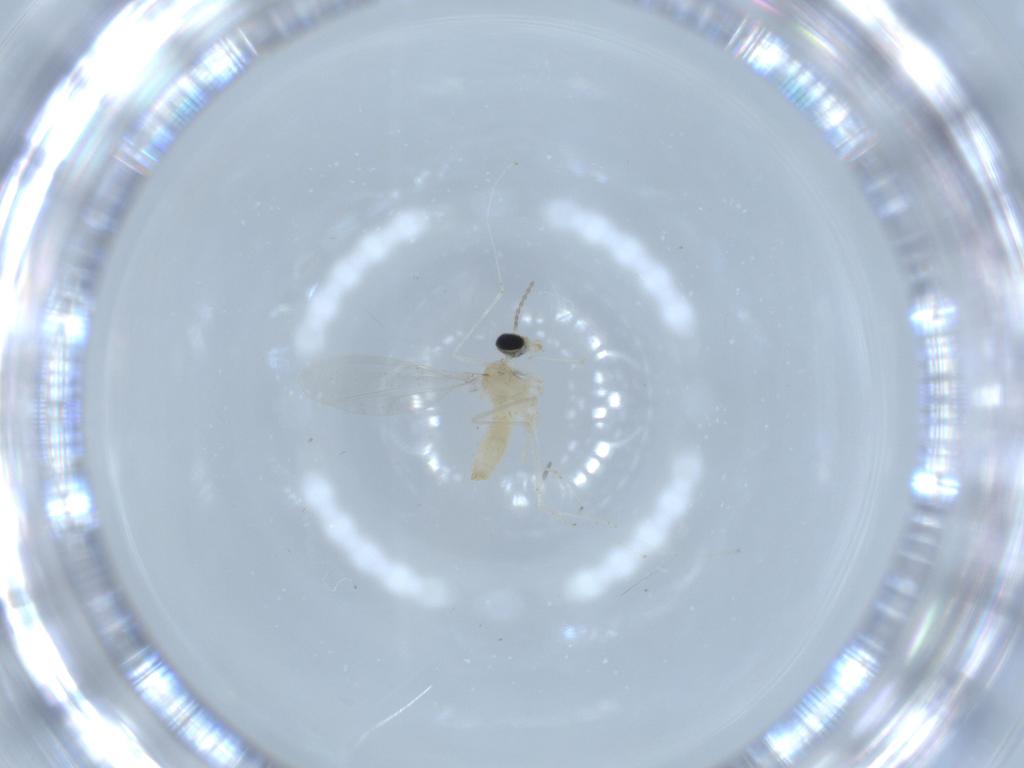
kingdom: Animalia
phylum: Arthropoda
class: Insecta
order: Diptera
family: Cecidomyiidae
